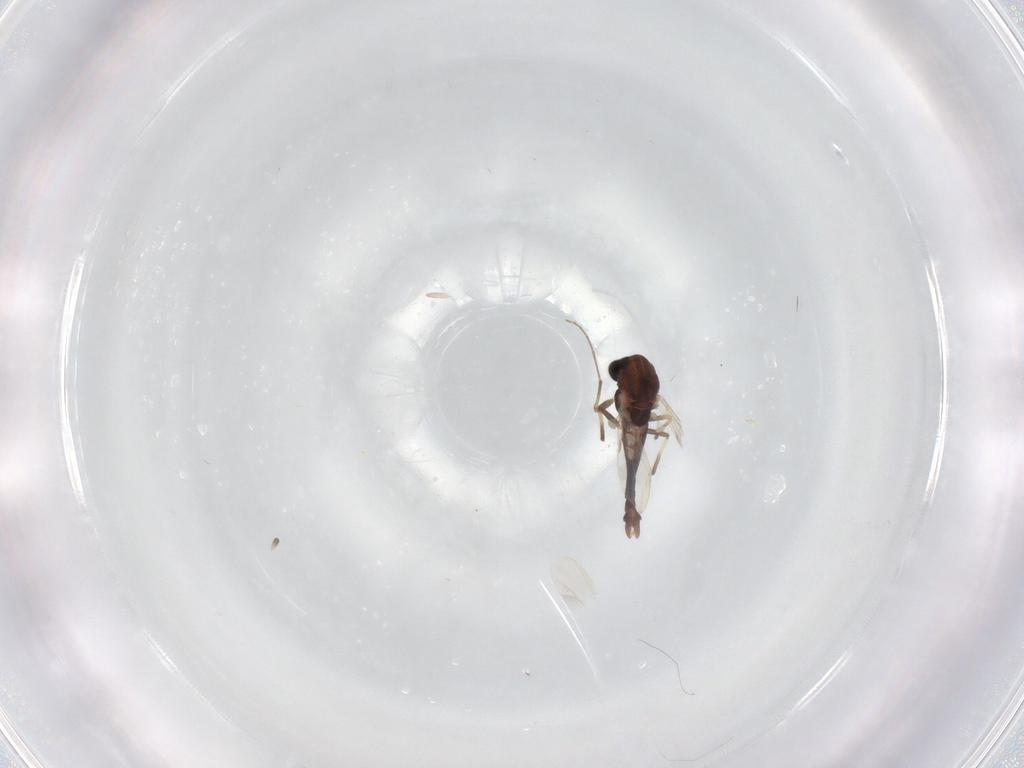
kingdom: Animalia
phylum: Arthropoda
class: Insecta
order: Diptera
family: Chironomidae
